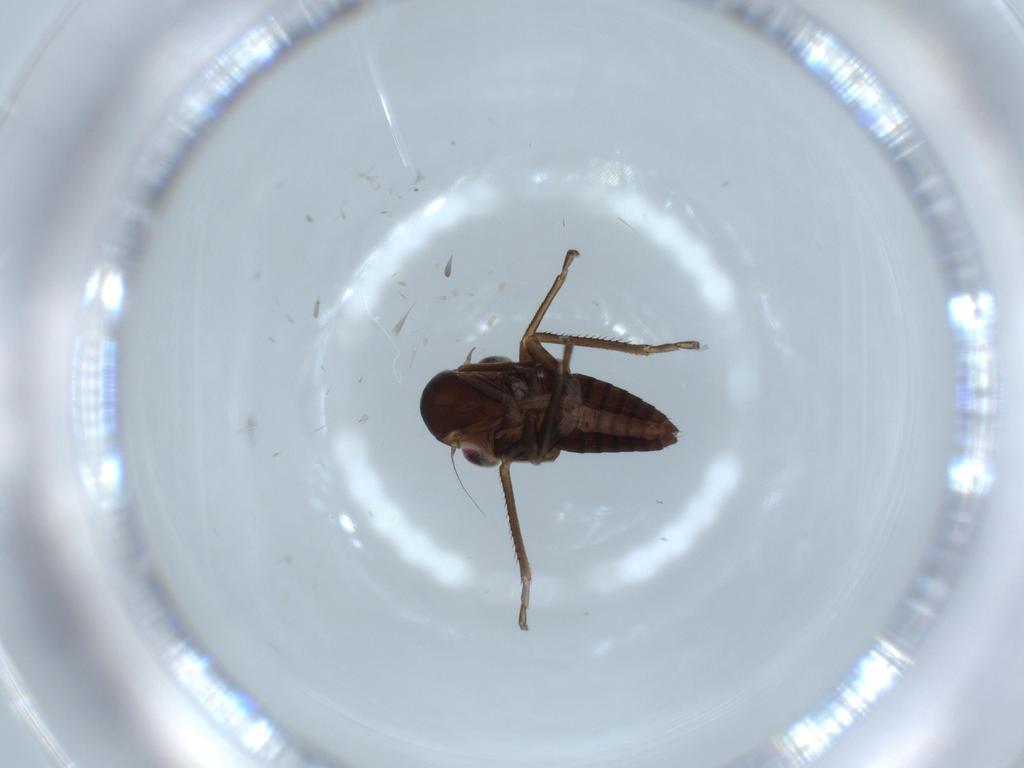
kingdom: Animalia
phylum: Arthropoda
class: Insecta
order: Hemiptera
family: Cicadellidae
